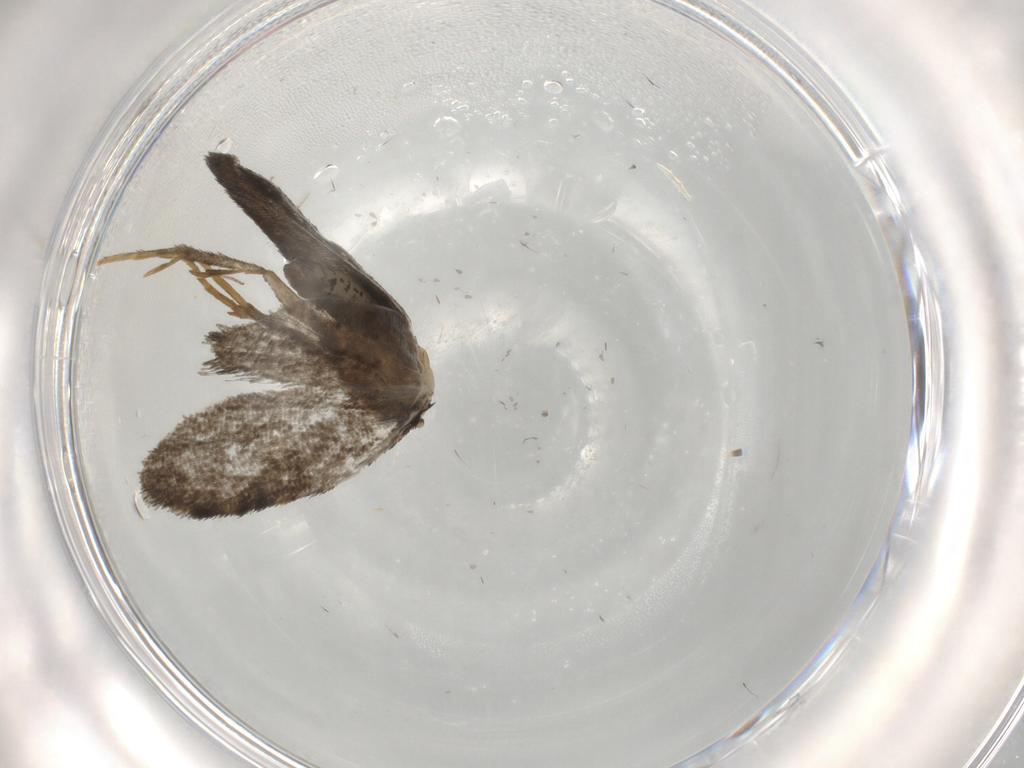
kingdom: Animalia
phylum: Arthropoda
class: Insecta
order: Lepidoptera
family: Psychidae
